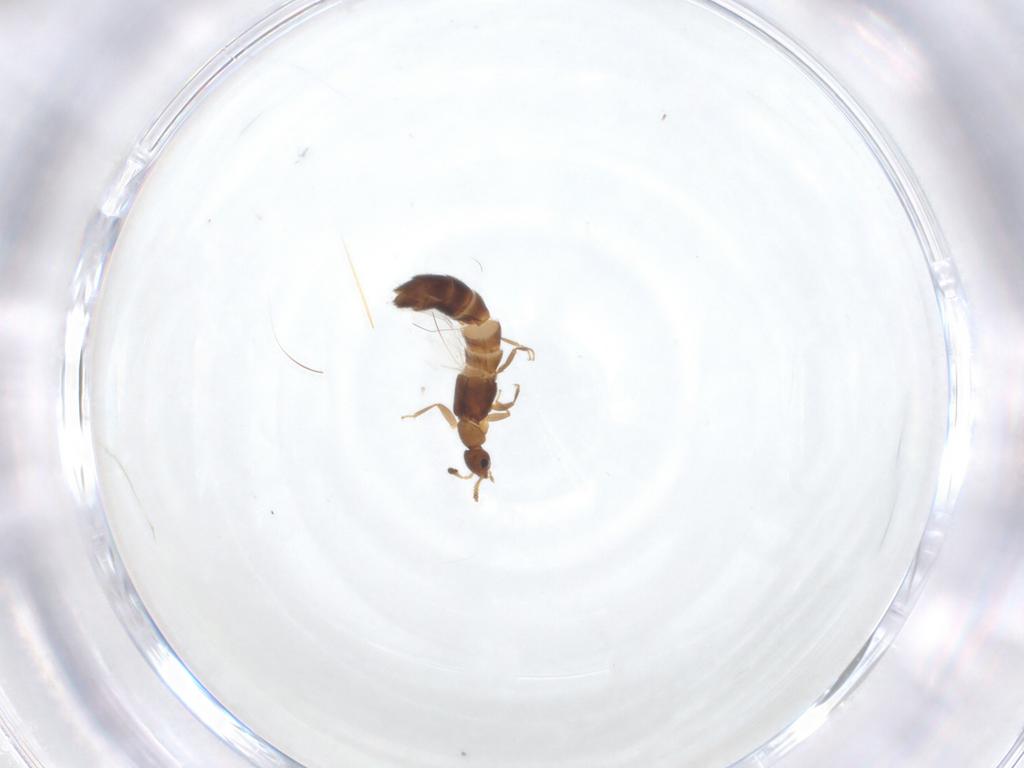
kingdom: Animalia
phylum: Arthropoda
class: Insecta
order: Coleoptera
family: Staphylinidae
